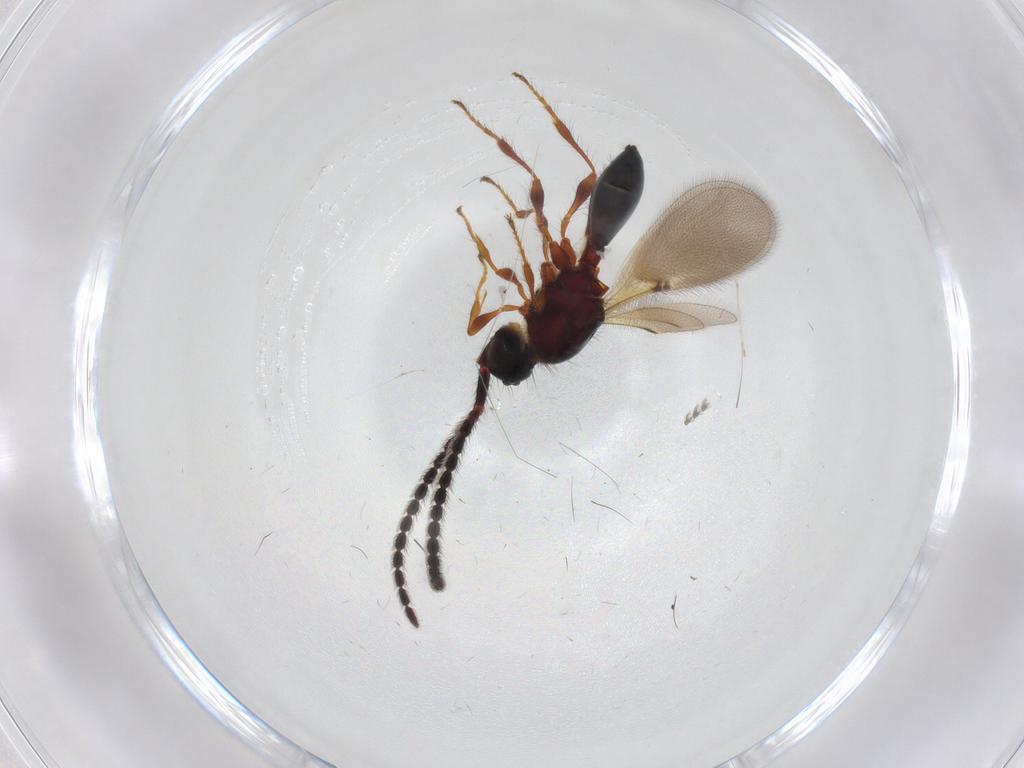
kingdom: Animalia
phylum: Arthropoda
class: Insecta
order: Hymenoptera
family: Diapriidae
